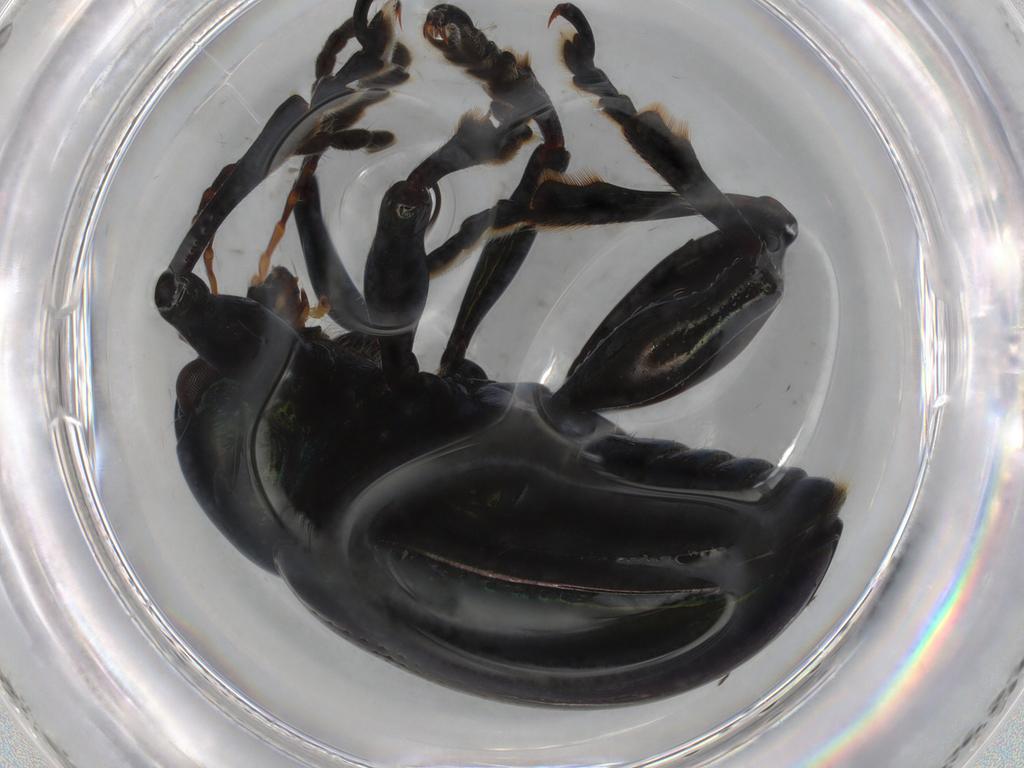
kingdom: Animalia
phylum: Arthropoda
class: Insecta
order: Coleoptera
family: Chrysomelidae
